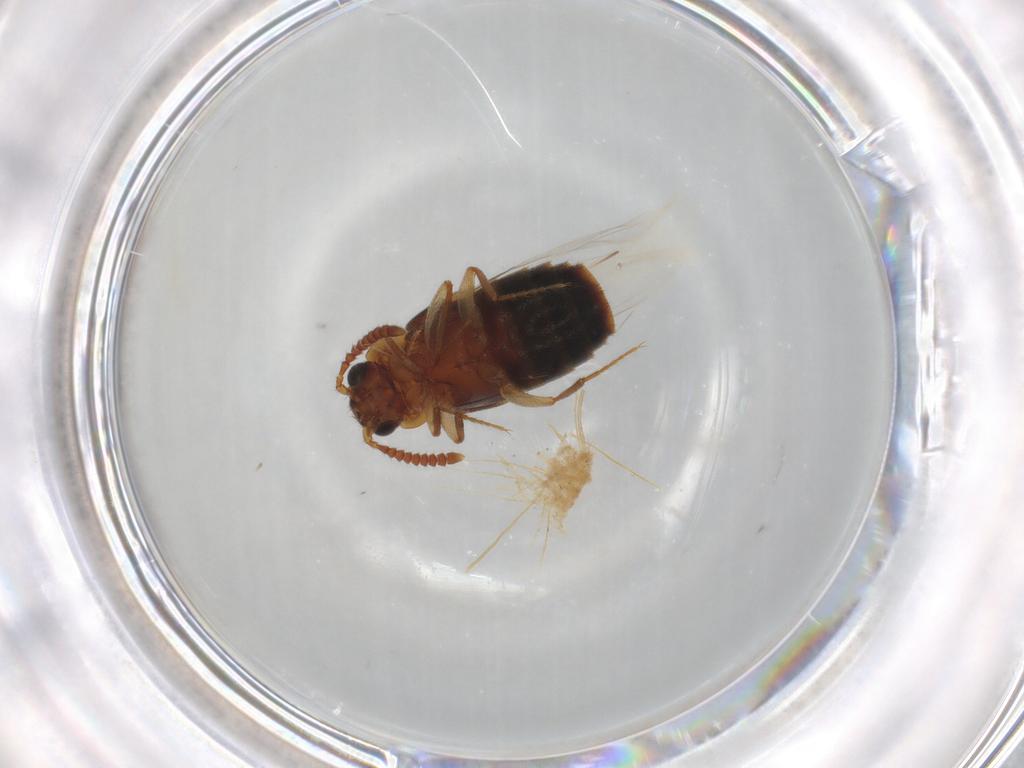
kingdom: Animalia
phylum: Arthropoda
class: Insecta
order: Coleoptera
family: Staphylinidae
